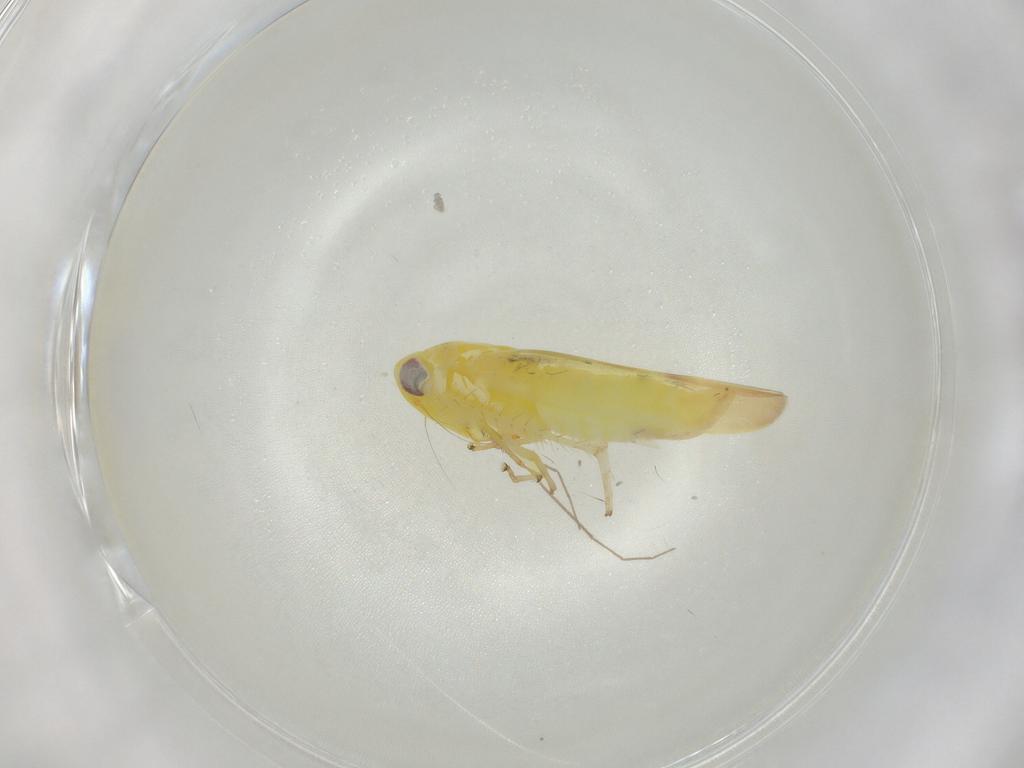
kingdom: Animalia
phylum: Arthropoda
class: Insecta
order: Hemiptera
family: Cicadellidae
